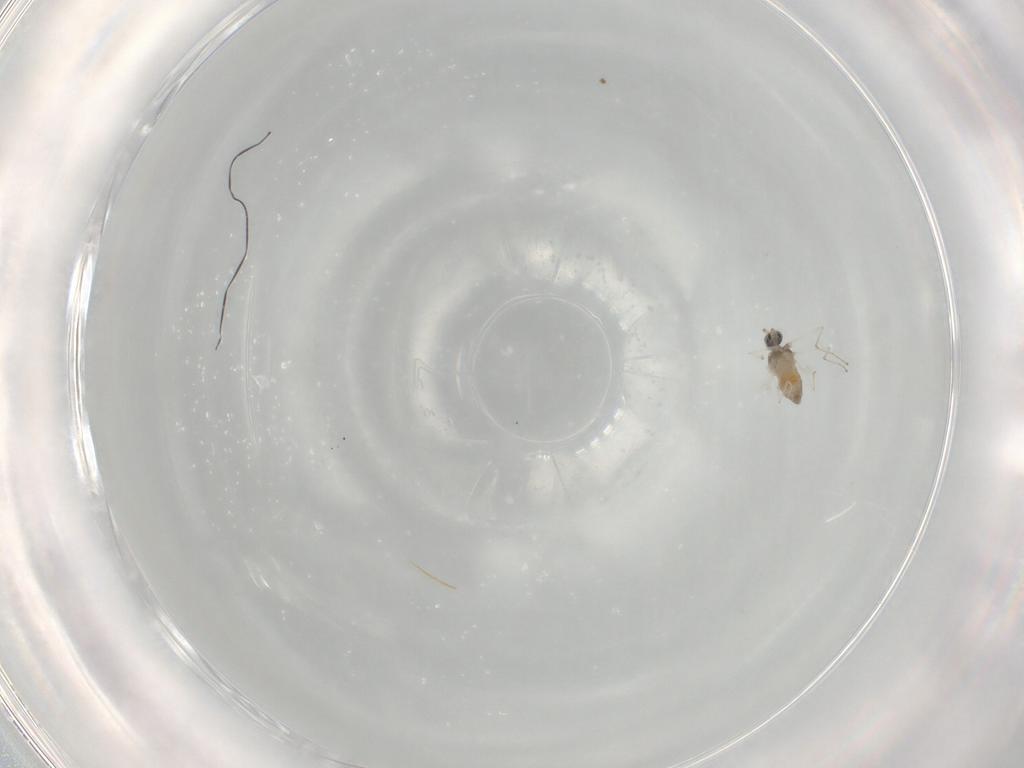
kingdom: Animalia
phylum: Arthropoda
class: Insecta
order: Diptera
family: Cecidomyiidae
